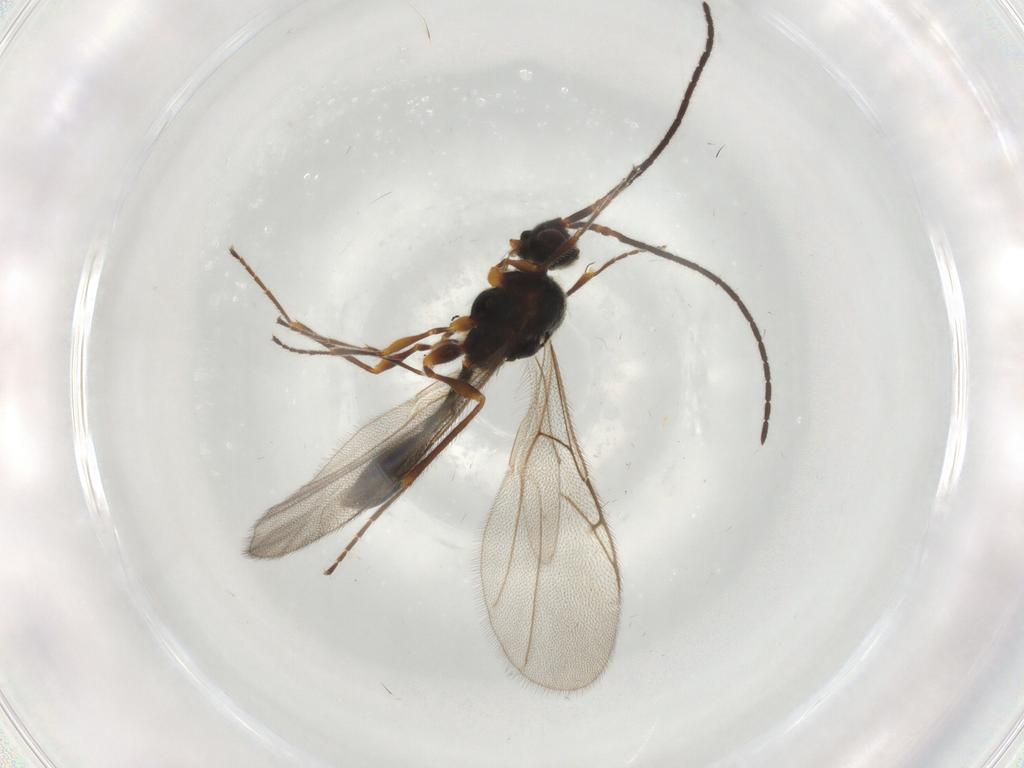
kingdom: Animalia
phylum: Arthropoda
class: Insecta
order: Hymenoptera
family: Diapriidae
